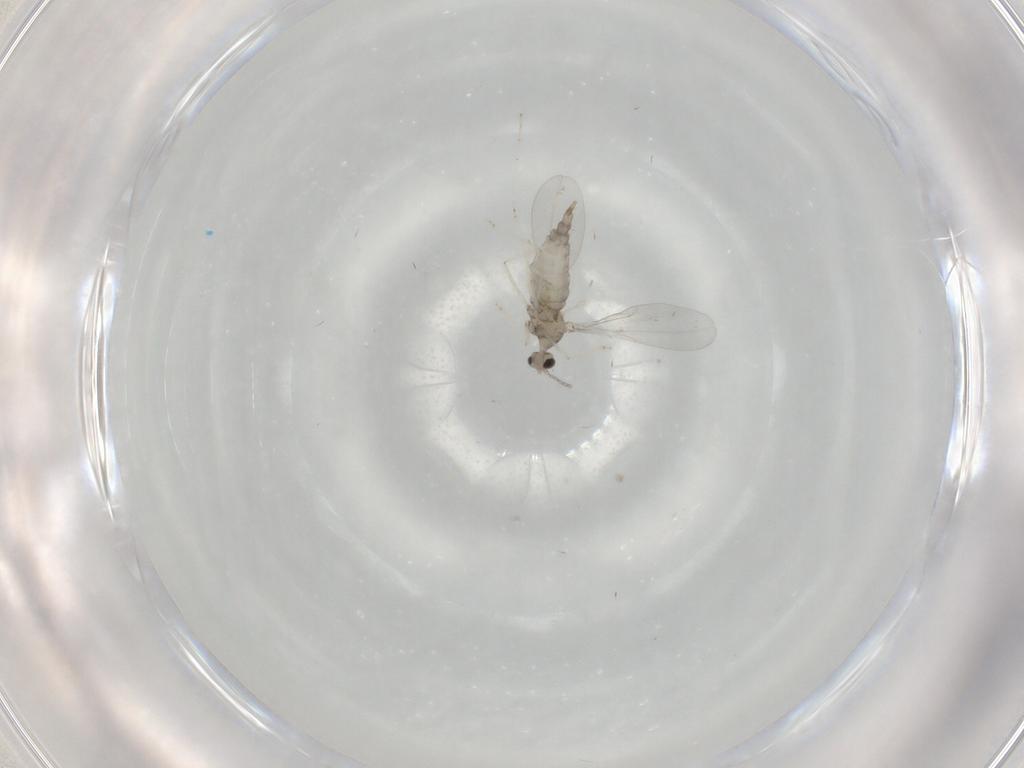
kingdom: Animalia
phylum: Arthropoda
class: Insecta
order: Diptera
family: Cecidomyiidae
